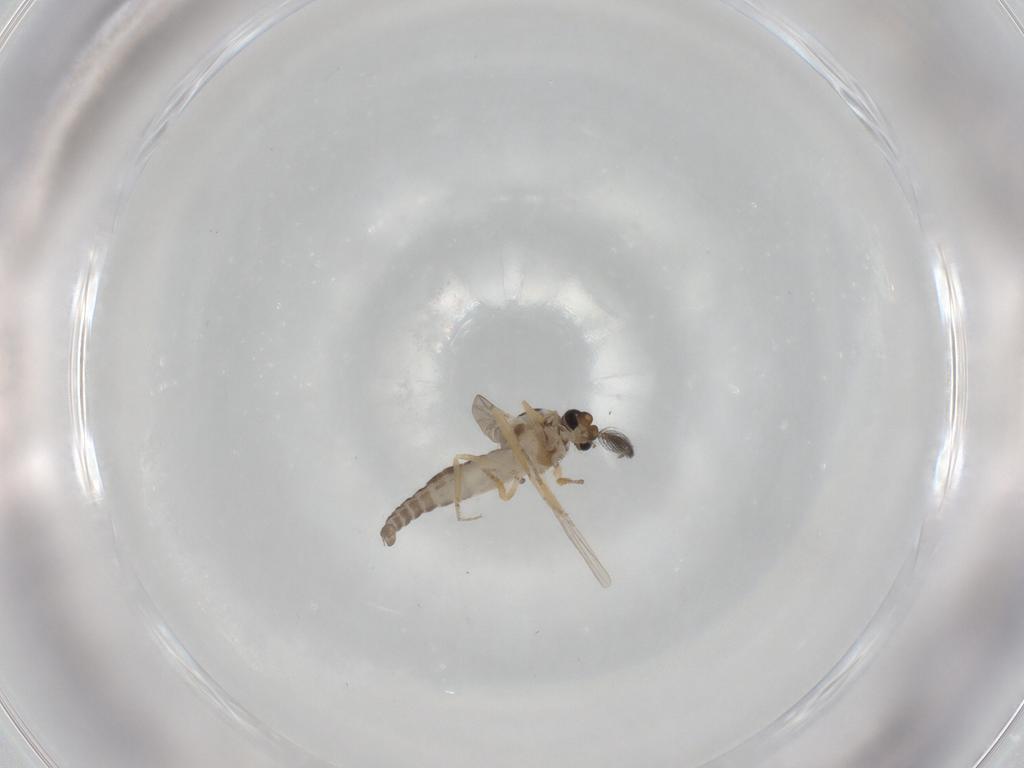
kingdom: Animalia
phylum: Arthropoda
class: Insecta
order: Diptera
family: Ceratopogonidae
